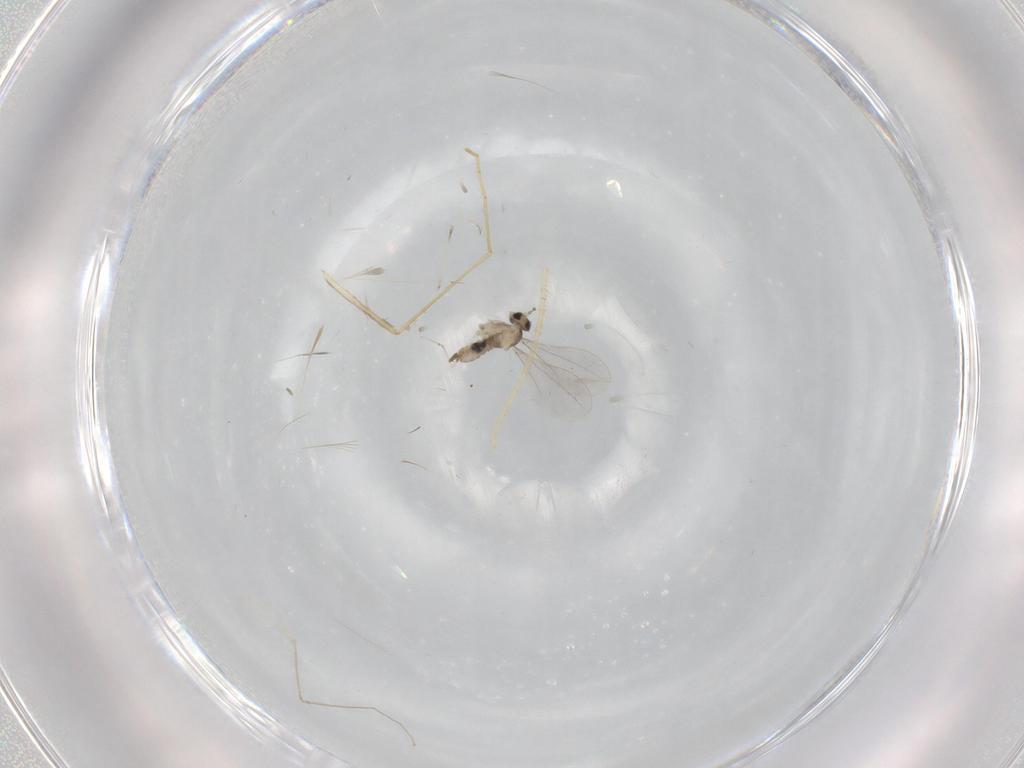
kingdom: Animalia
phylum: Arthropoda
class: Insecta
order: Diptera
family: Cecidomyiidae
